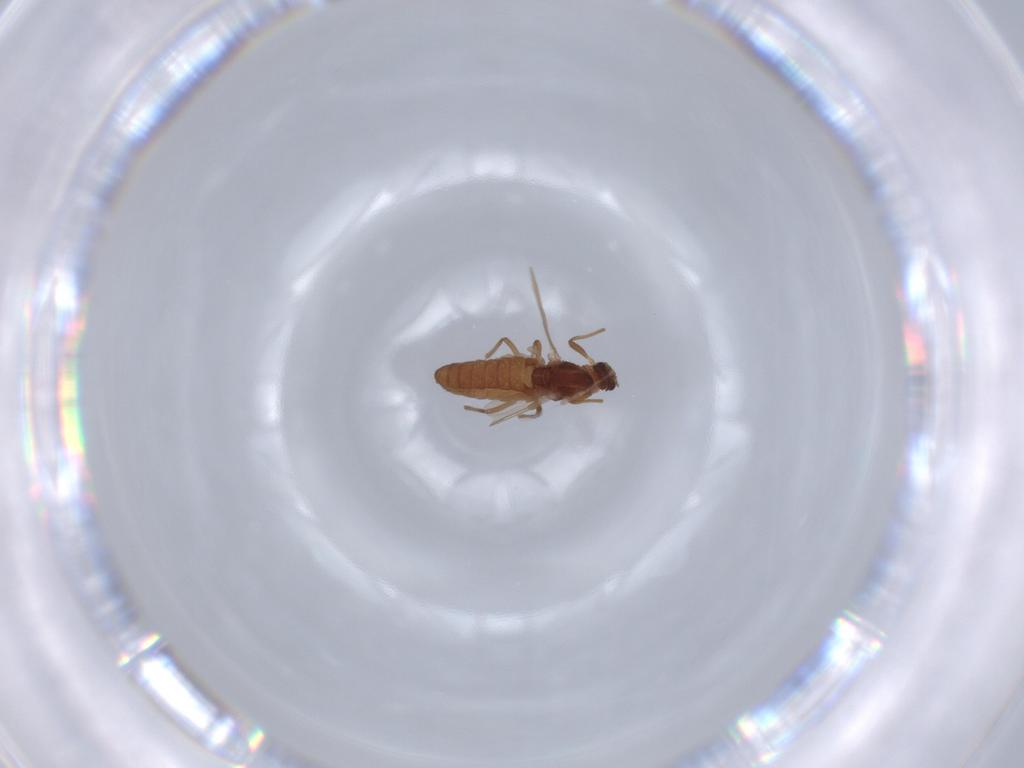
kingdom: Animalia
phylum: Arthropoda
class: Insecta
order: Diptera
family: Chironomidae
